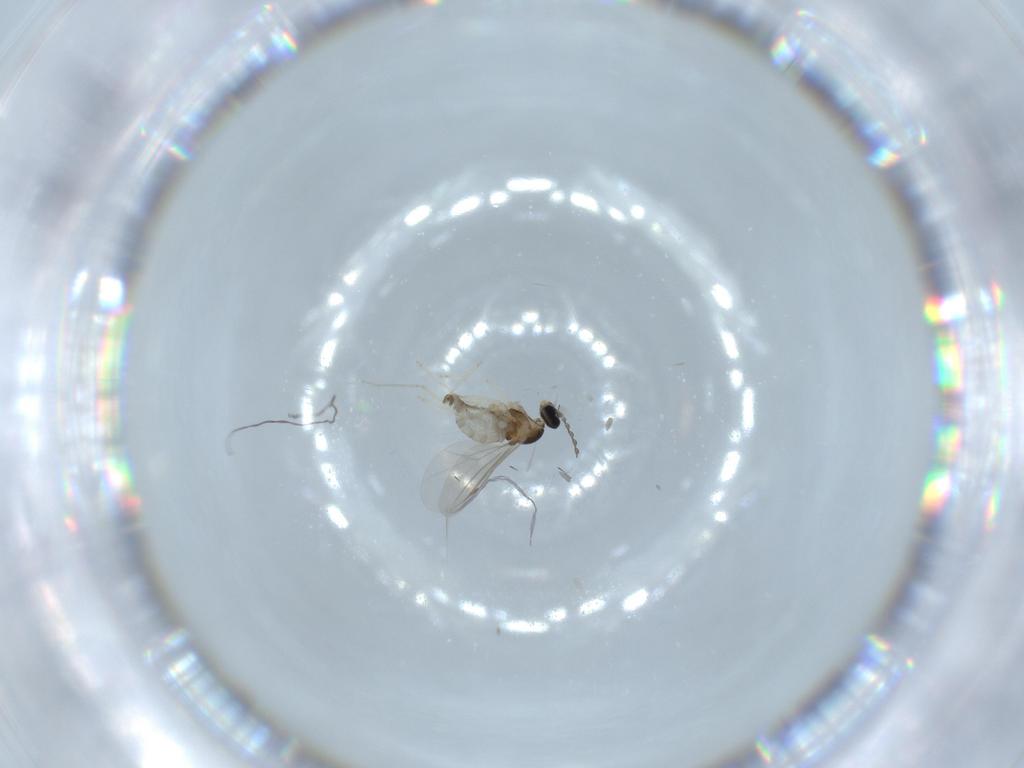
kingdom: Animalia
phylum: Arthropoda
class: Insecta
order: Diptera
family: Cecidomyiidae
